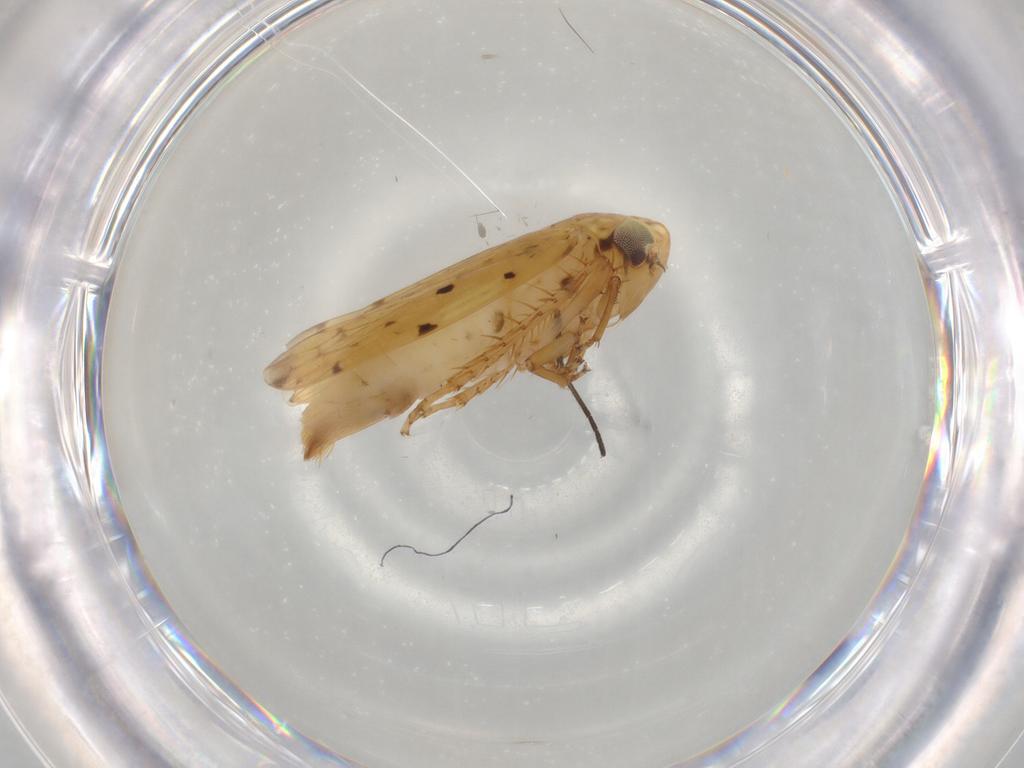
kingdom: Animalia
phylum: Arthropoda
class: Insecta
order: Hemiptera
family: Cicadellidae
